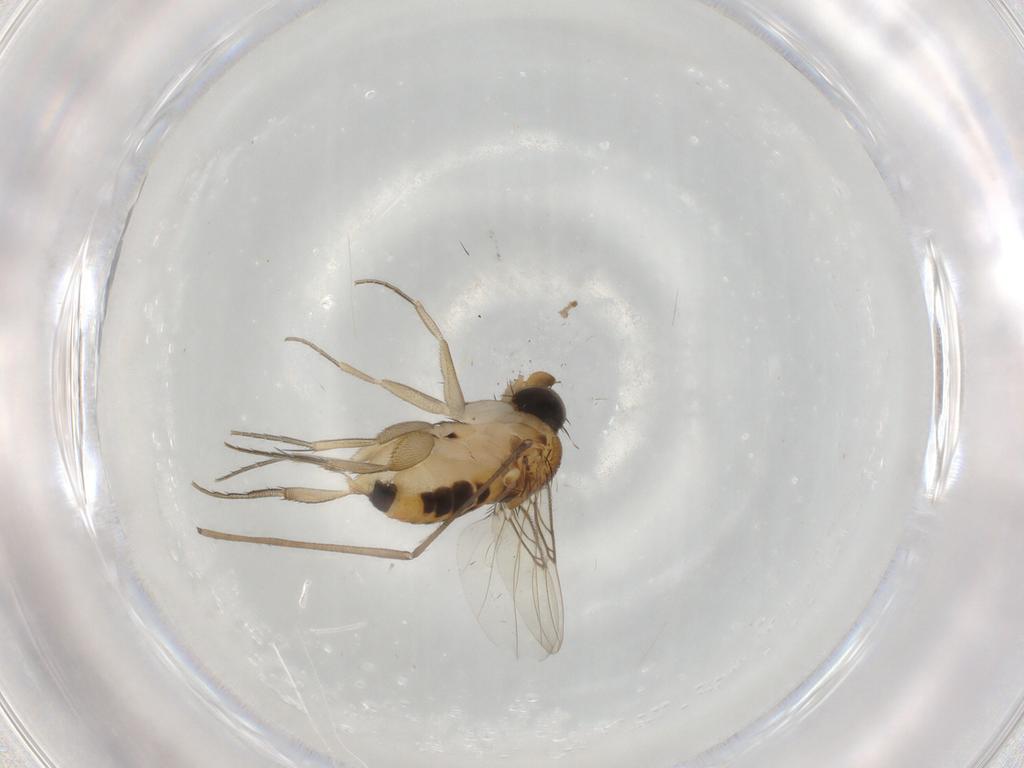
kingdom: Animalia
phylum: Arthropoda
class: Insecta
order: Diptera
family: Phoridae
